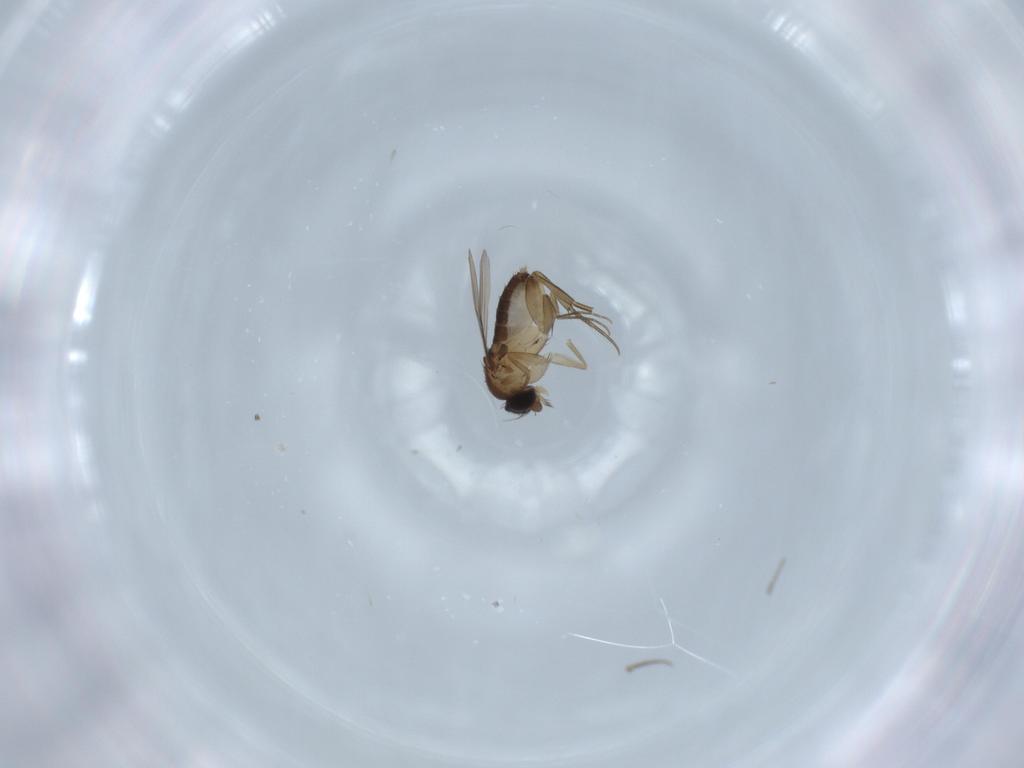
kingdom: Animalia
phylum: Arthropoda
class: Insecta
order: Diptera
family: Phoridae
